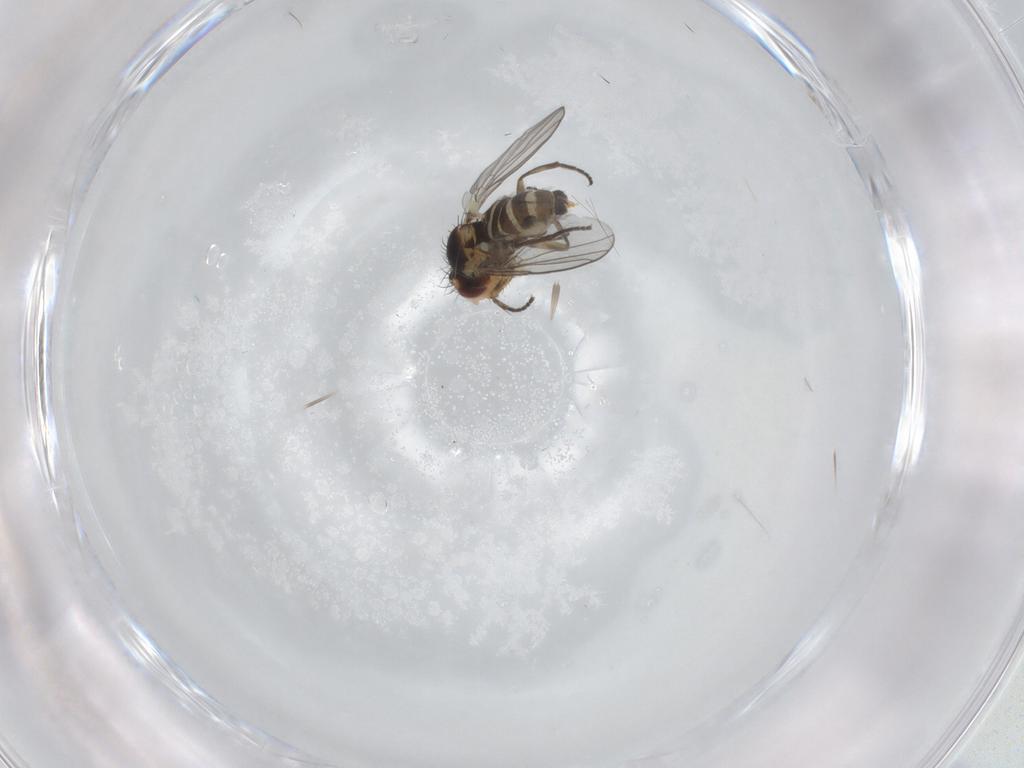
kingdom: Animalia
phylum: Arthropoda
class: Insecta
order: Diptera
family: Agromyzidae
